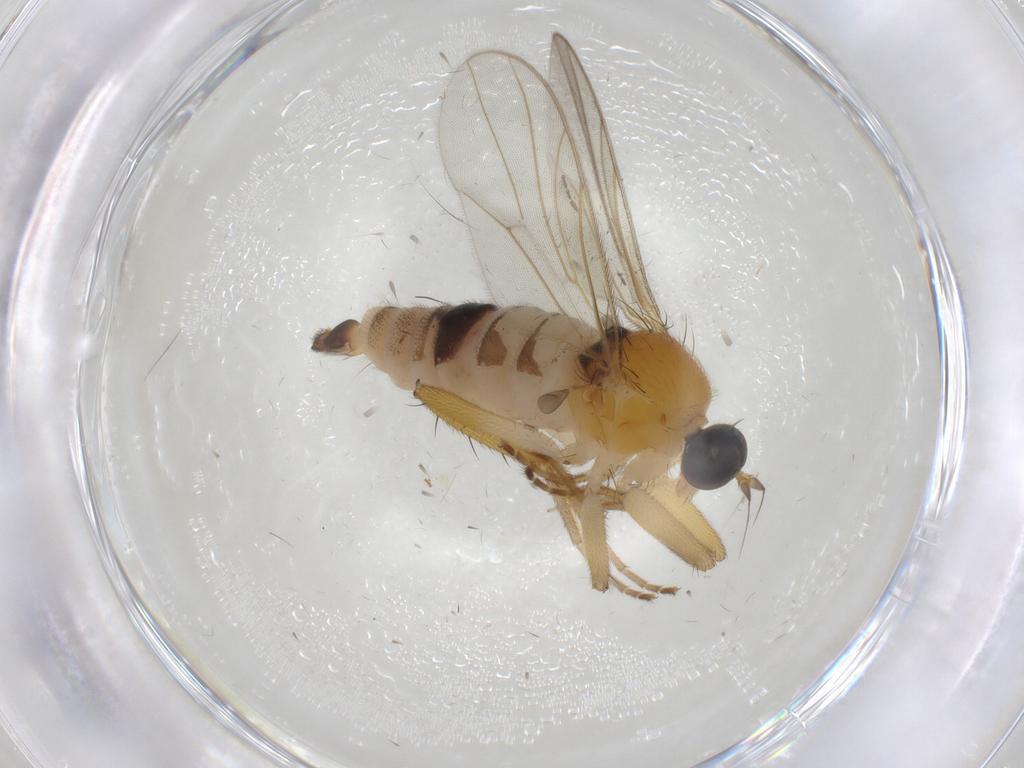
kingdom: Animalia
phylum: Arthropoda
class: Insecta
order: Diptera
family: Hybotidae
